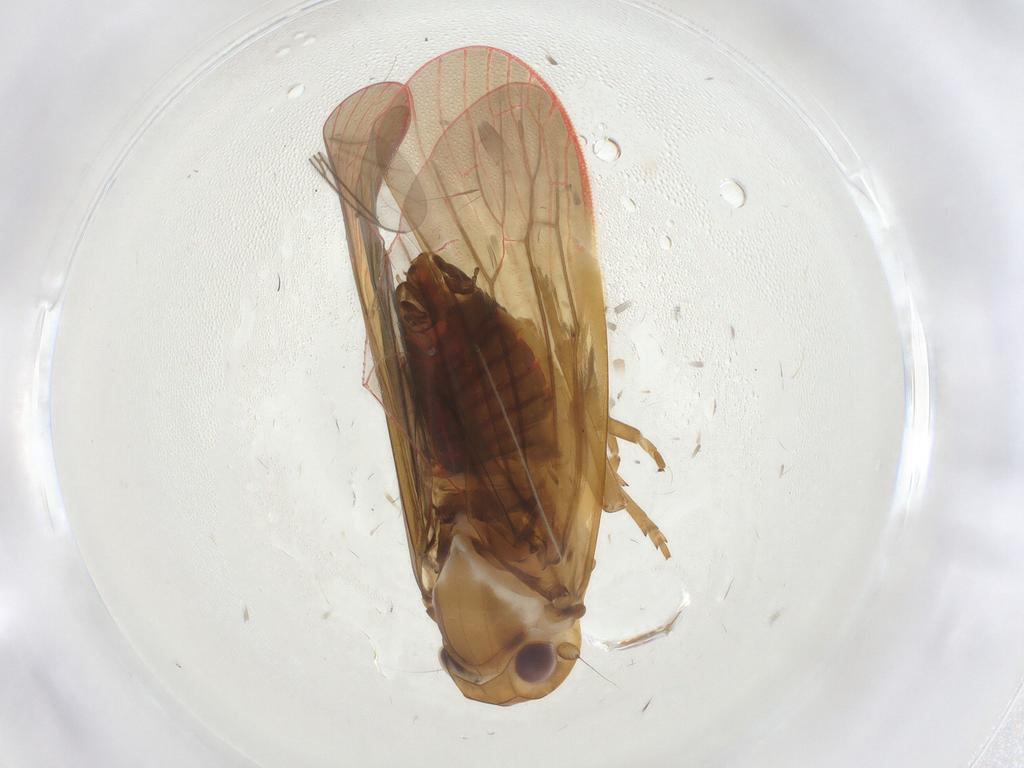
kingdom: Animalia
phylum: Arthropoda
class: Insecta
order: Hemiptera
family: Achilidae
